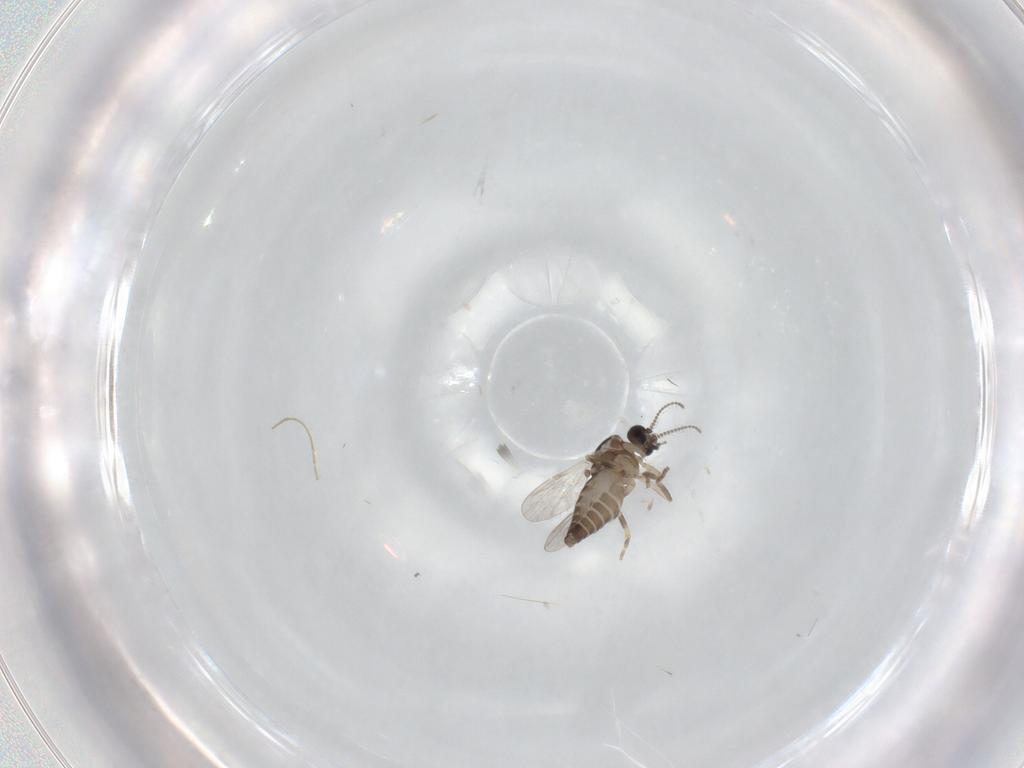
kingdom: Animalia
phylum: Arthropoda
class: Insecta
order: Diptera
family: Ceratopogonidae
